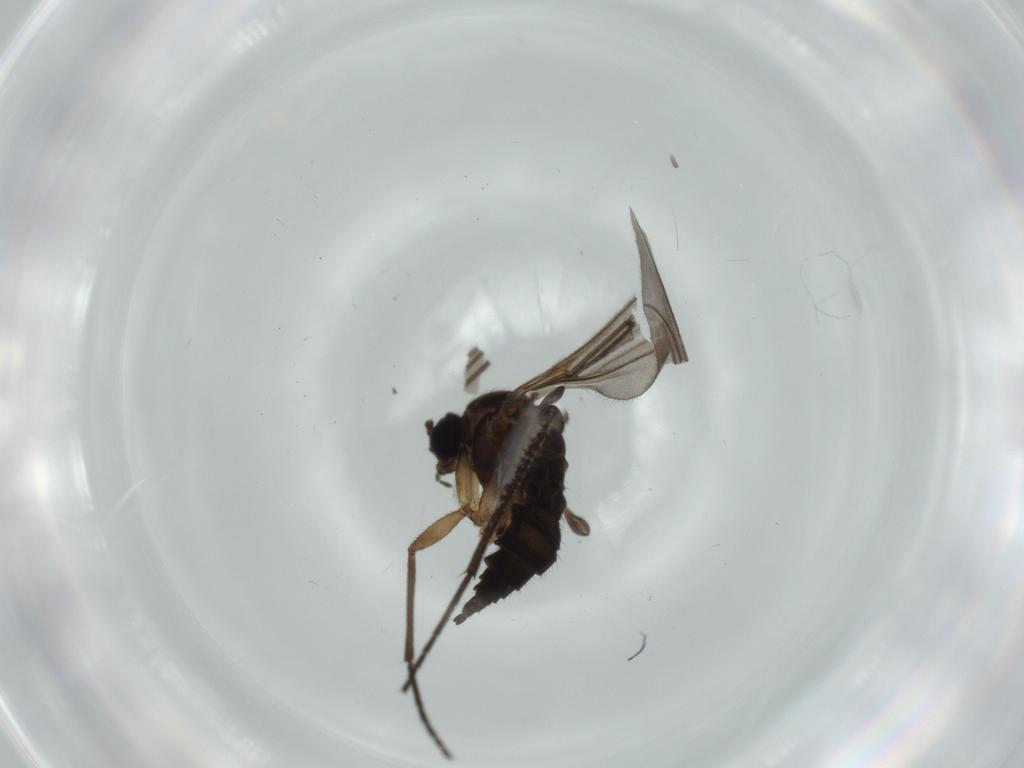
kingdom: Animalia
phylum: Arthropoda
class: Insecta
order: Diptera
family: Sciaridae
